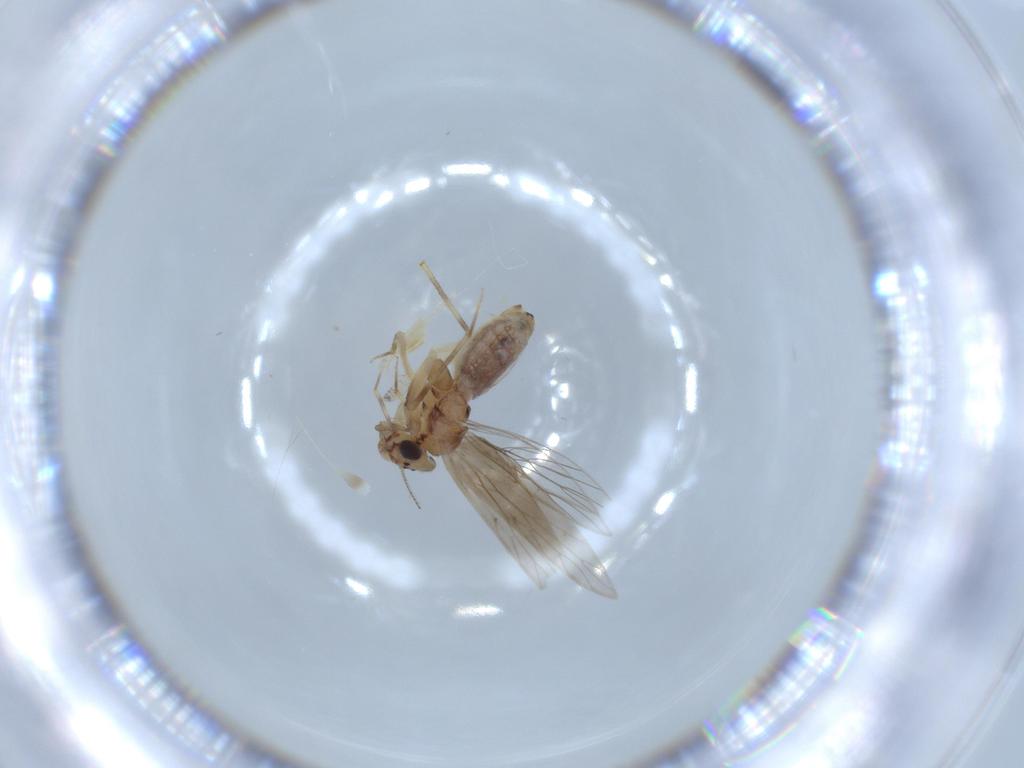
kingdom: Animalia
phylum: Arthropoda
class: Insecta
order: Psocodea
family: Lepidopsocidae
